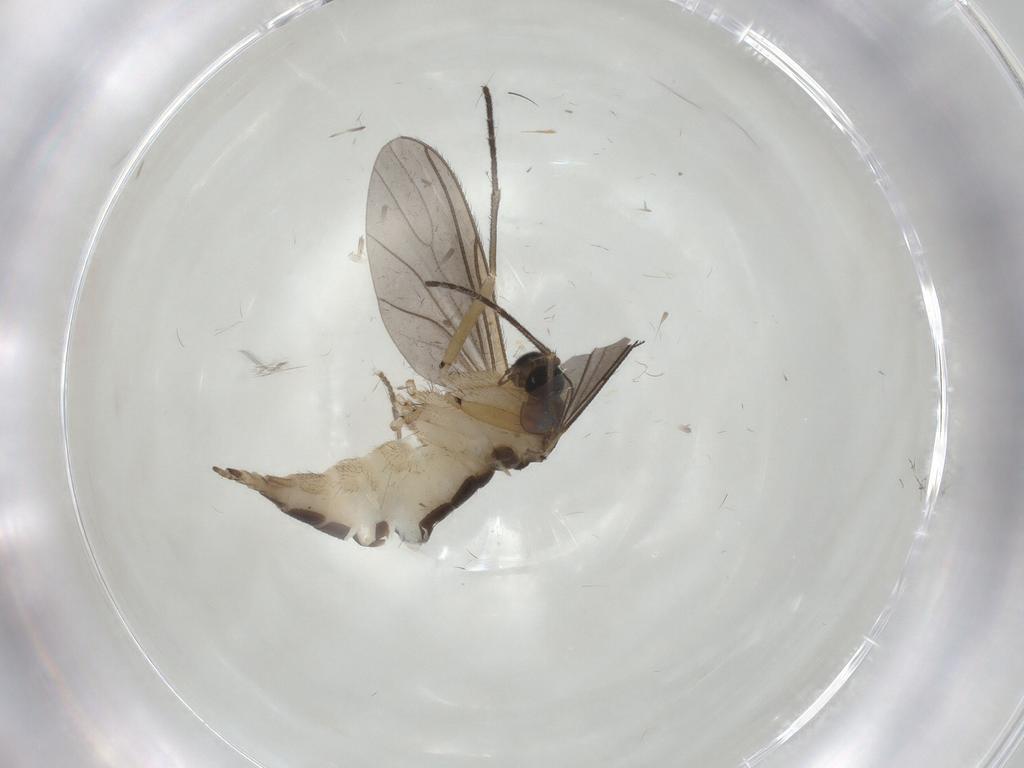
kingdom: Animalia
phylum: Arthropoda
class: Insecta
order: Diptera
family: Sciaridae
